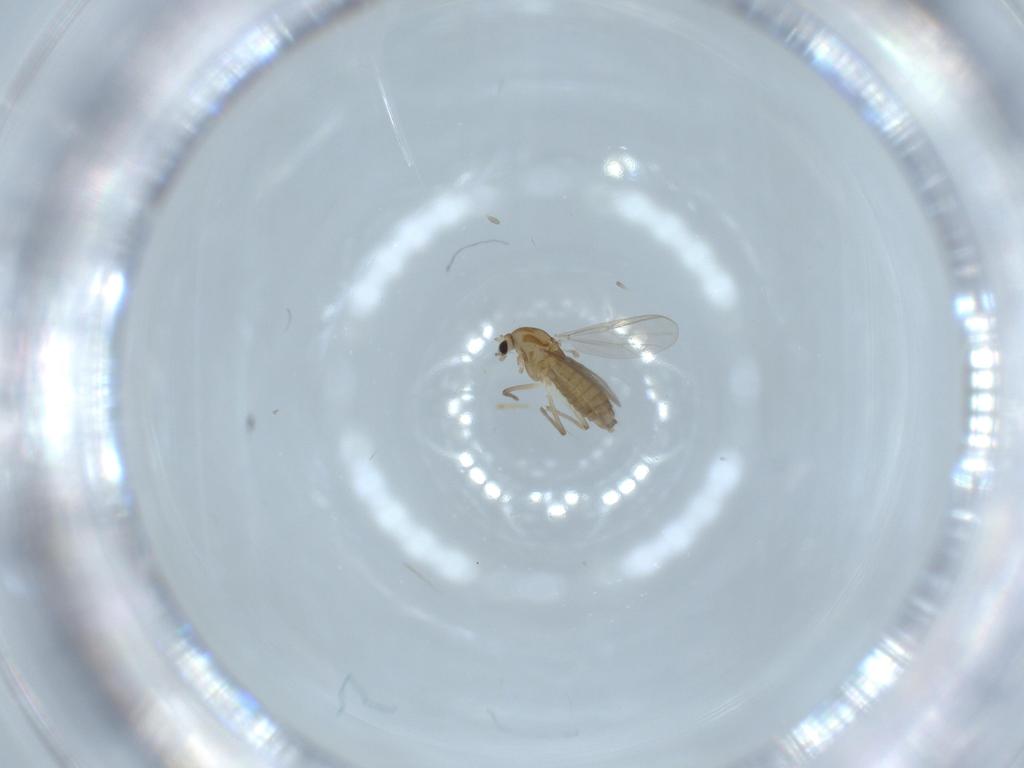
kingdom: Animalia
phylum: Arthropoda
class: Insecta
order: Diptera
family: Chironomidae
